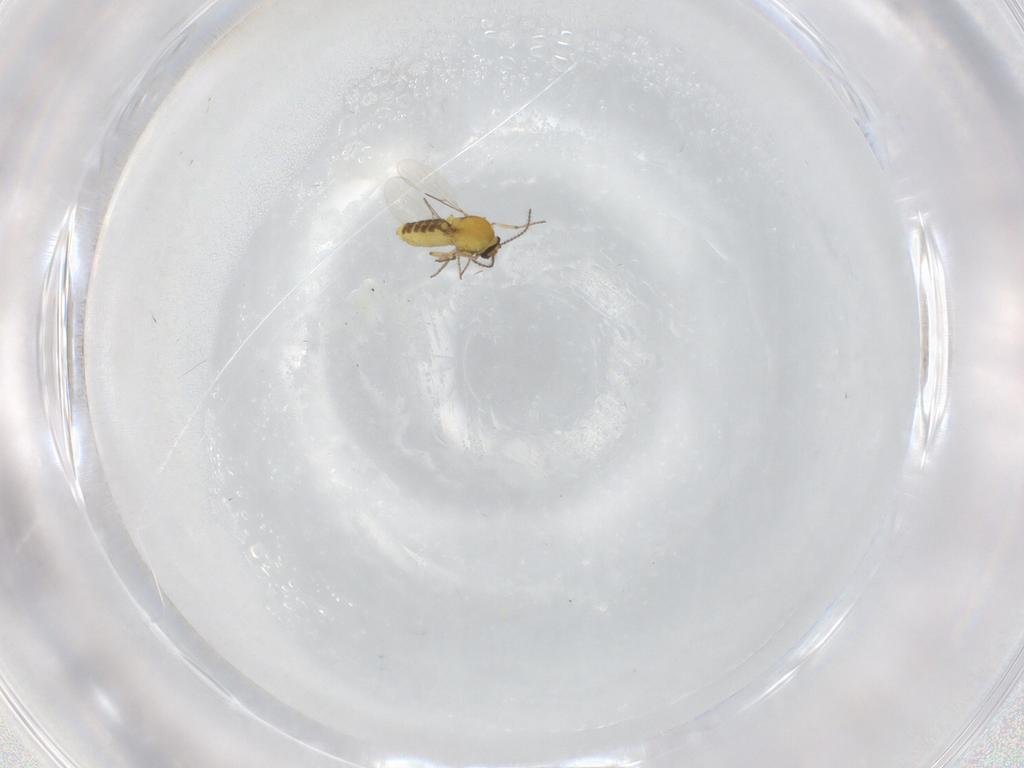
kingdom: Animalia
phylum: Arthropoda
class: Insecta
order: Diptera
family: Ceratopogonidae
